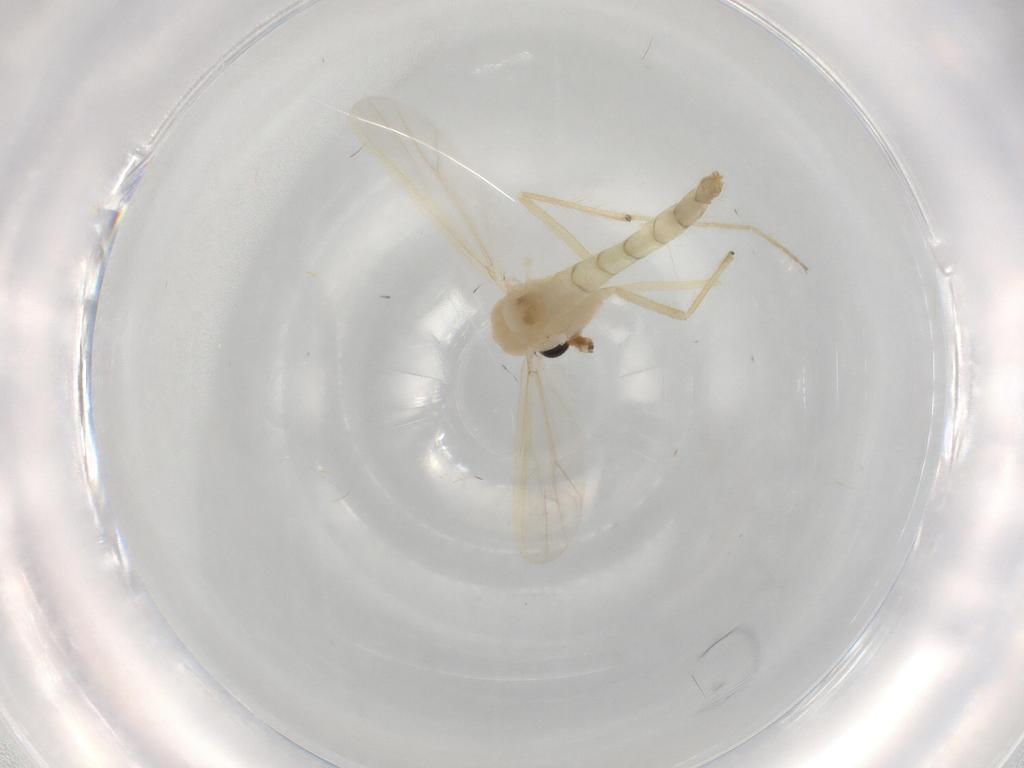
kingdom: Animalia
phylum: Arthropoda
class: Insecta
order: Diptera
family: Chironomidae
